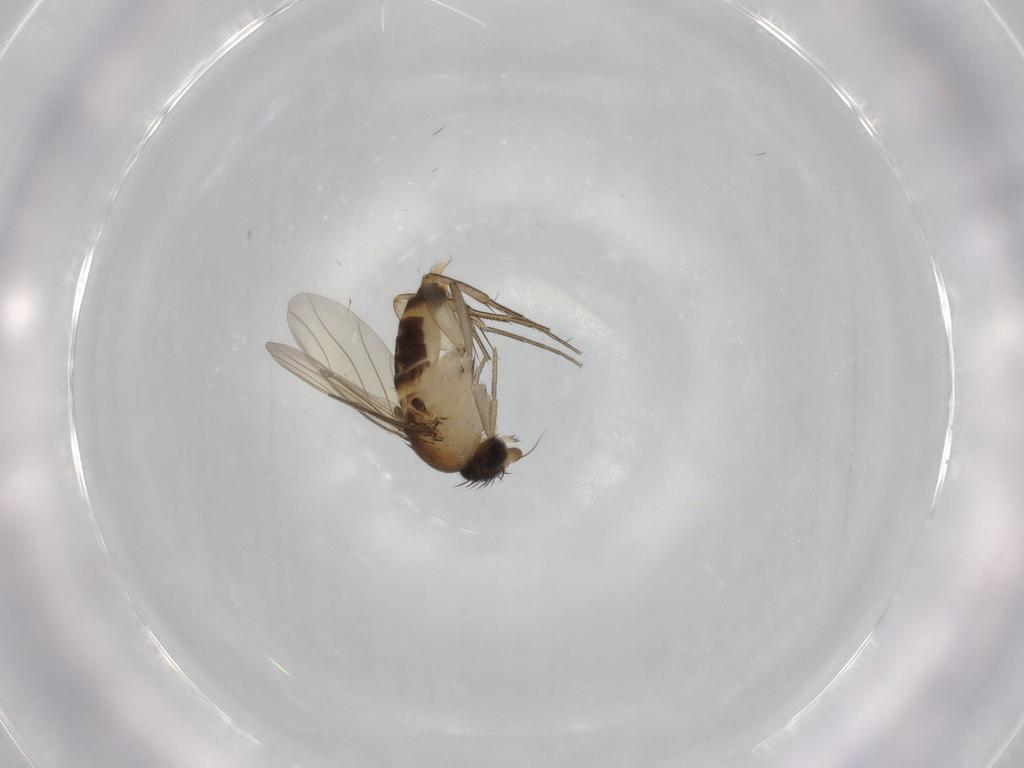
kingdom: Animalia
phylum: Arthropoda
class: Insecta
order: Diptera
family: Phoridae
